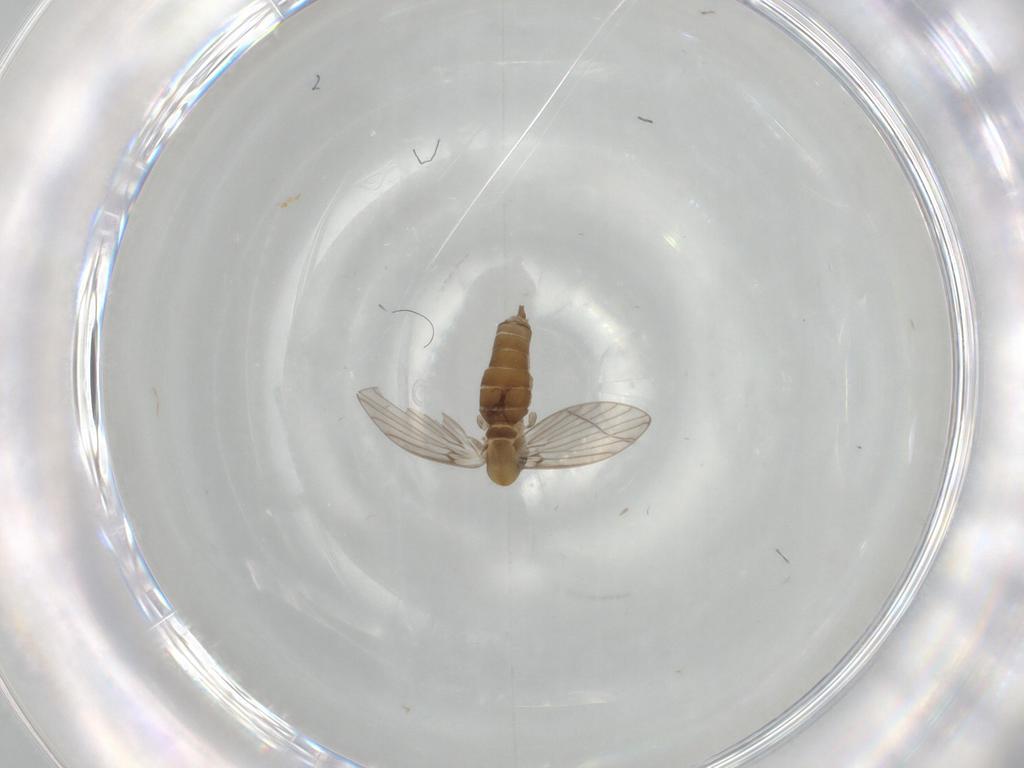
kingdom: Animalia
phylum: Arthropoda
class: Insecta
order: Diptera
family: Cecidomyiidae
